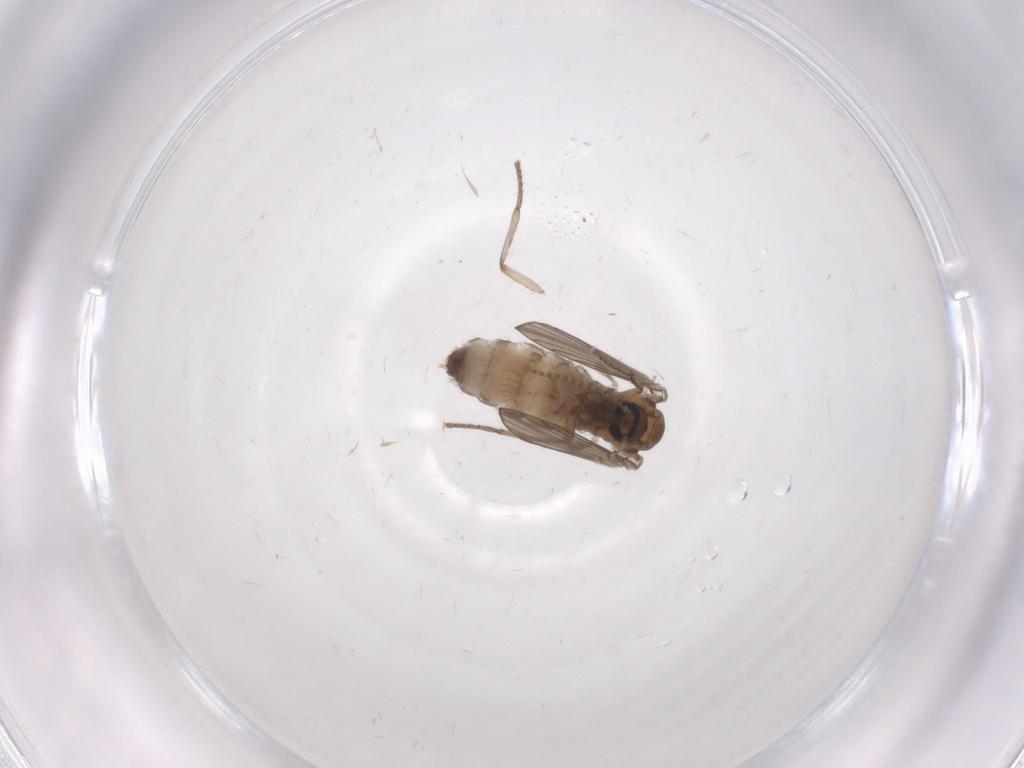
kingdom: Animalia
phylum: Arthropoda
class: Insecta
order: Diptera
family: Psychodidae
